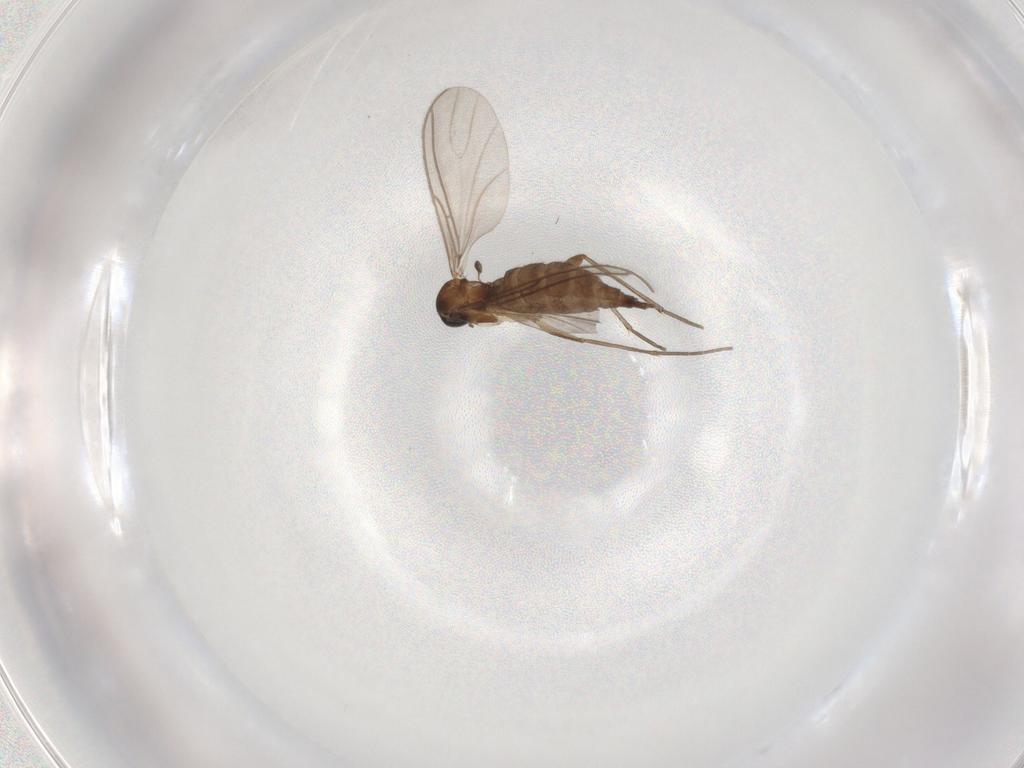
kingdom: Animalia
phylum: Arthropoda
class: Insecta
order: Diptera
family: Sciaridae
